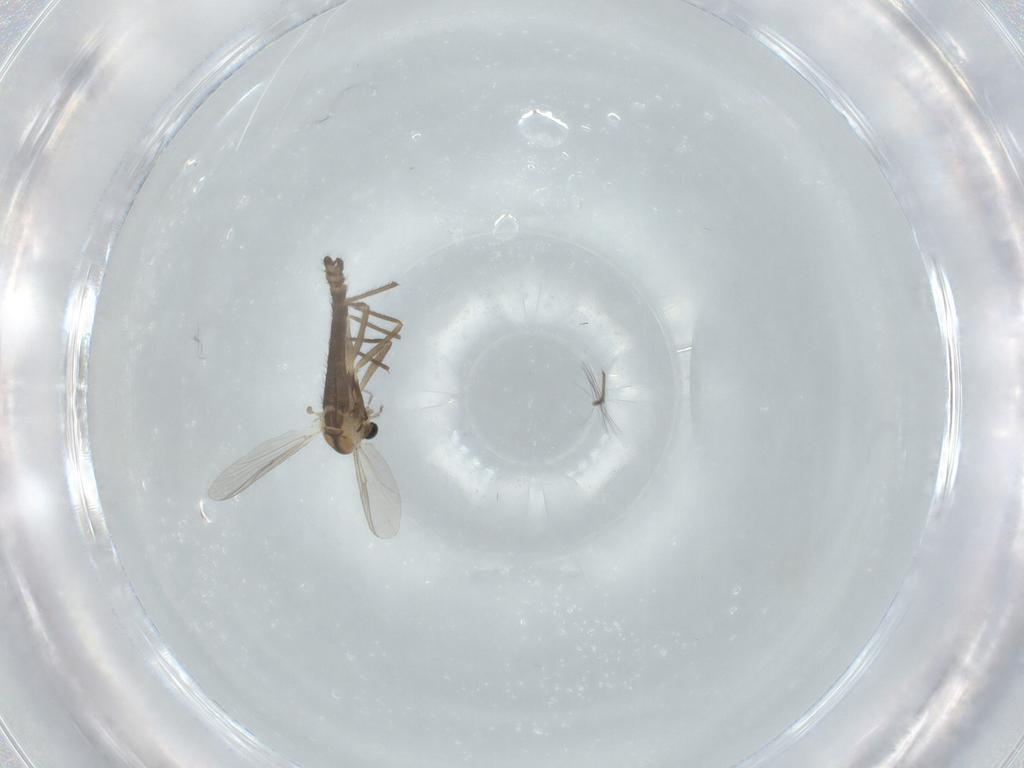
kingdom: Animalia
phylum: Arthropoda
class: Insecta
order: Diptera
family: Chironomidae
